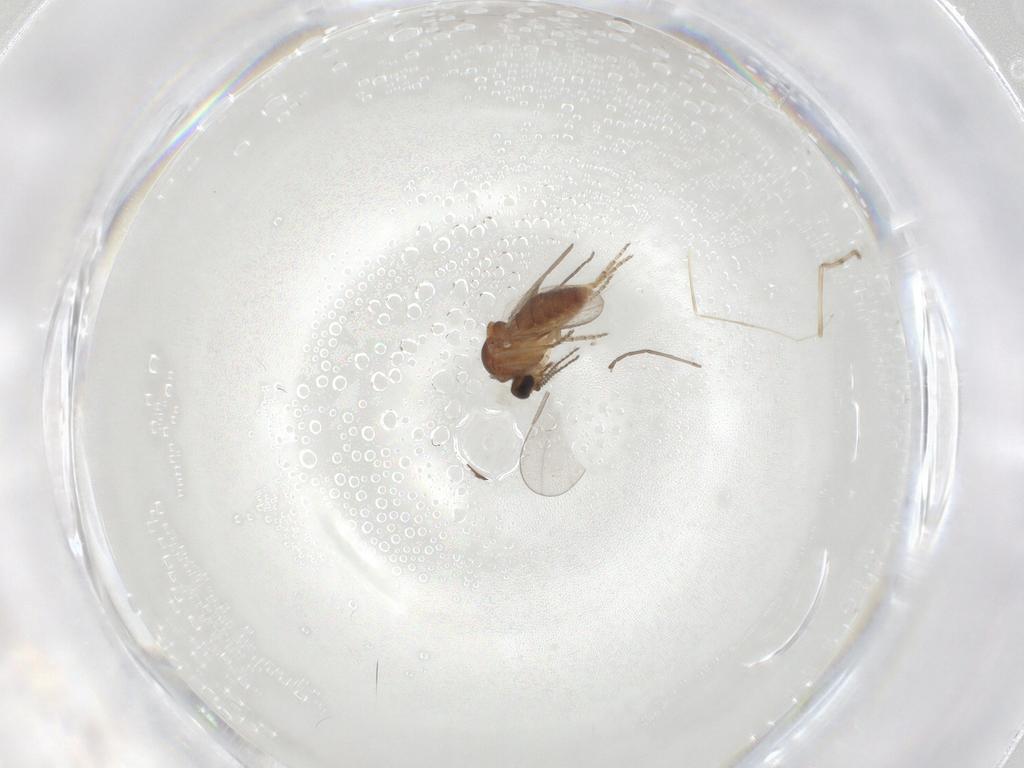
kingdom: Animalia
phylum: Arthropoda
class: Insecta
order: Diptera
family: Ceratopogonidae
